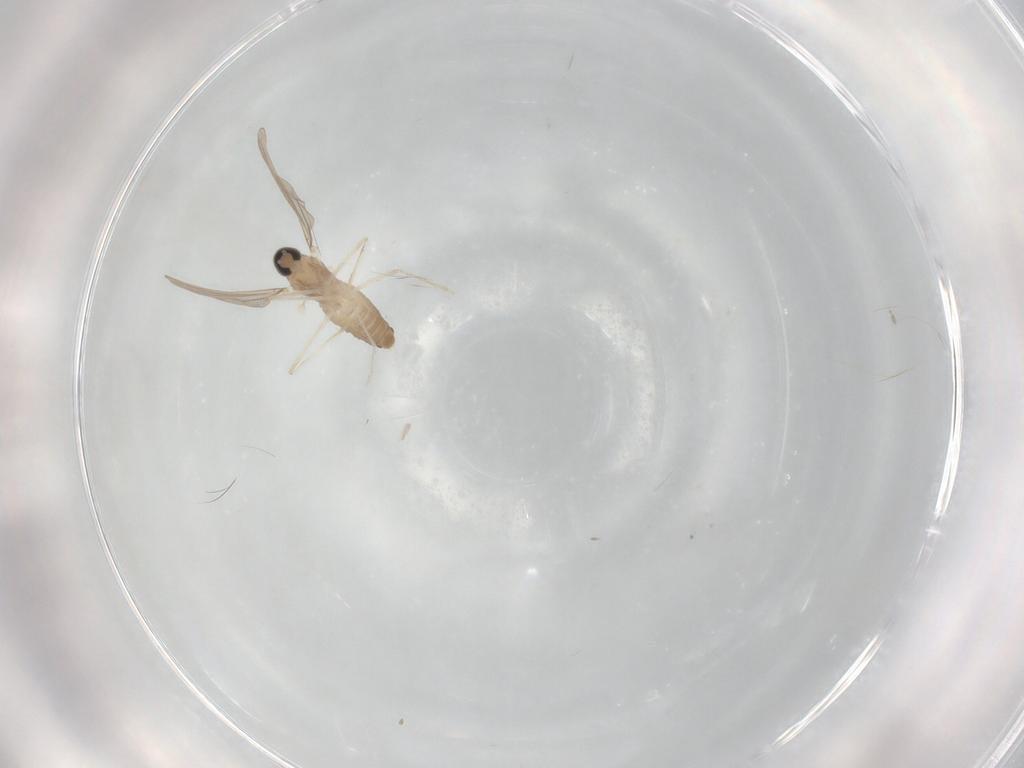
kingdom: Animalia
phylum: Arthropoda
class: Insecta
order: Diptera
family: Cecidomyiidae
